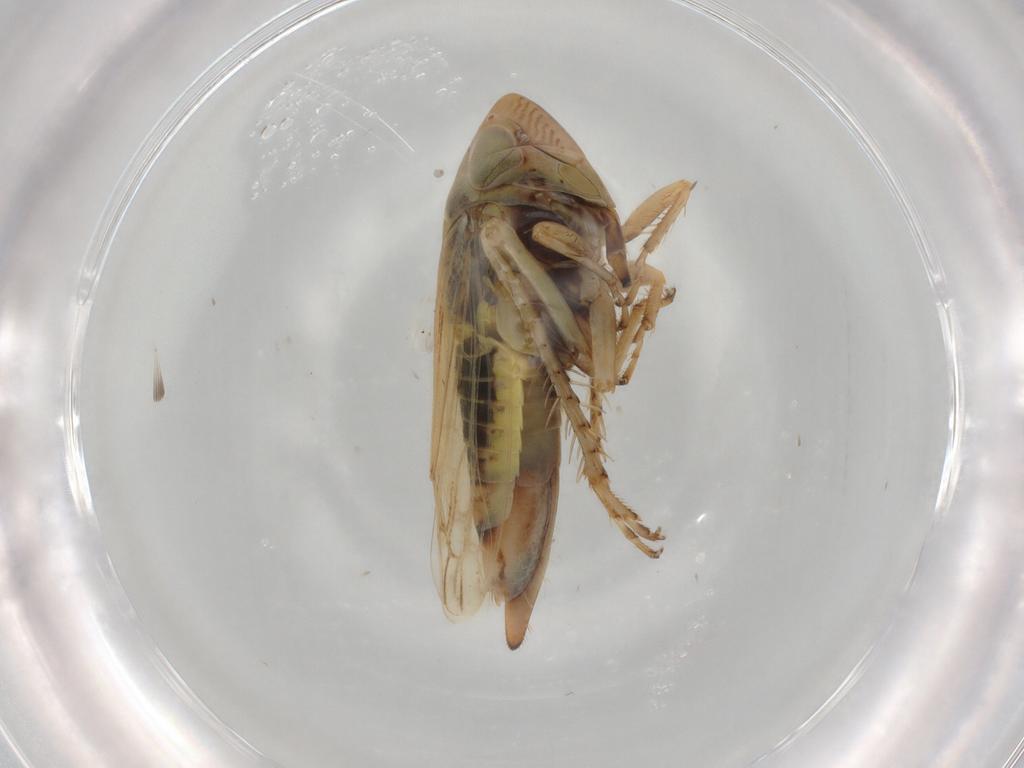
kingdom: Animalia
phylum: Arthropoda
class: Insecta
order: Hemiptera
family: Cicadellidae
